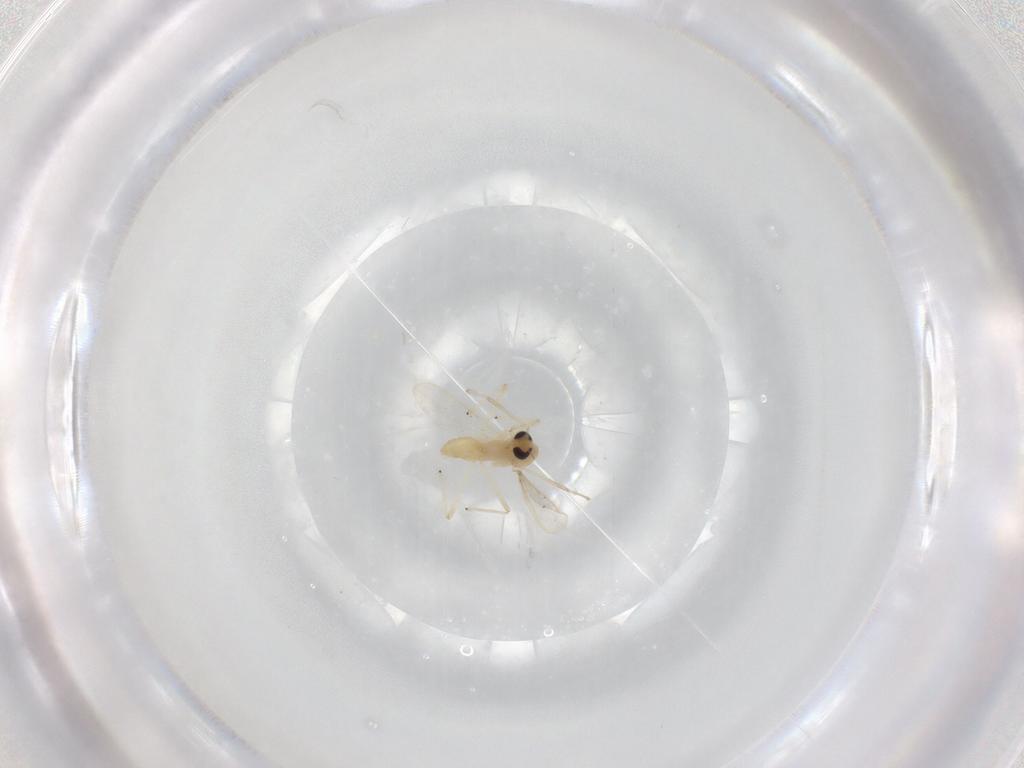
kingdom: Animalia
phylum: Arthropoda
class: Insecta
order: Diptera
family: Chironomidae
